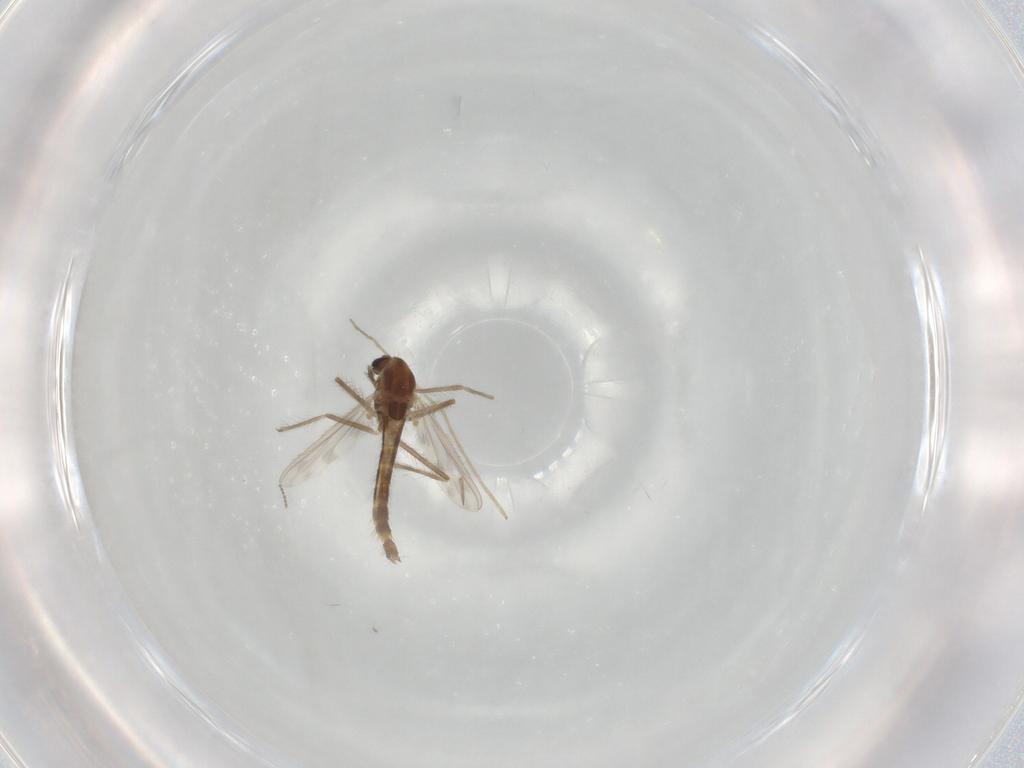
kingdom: Animalia
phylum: Arthropoda
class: Insecta
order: Diptera
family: Chironomidae
